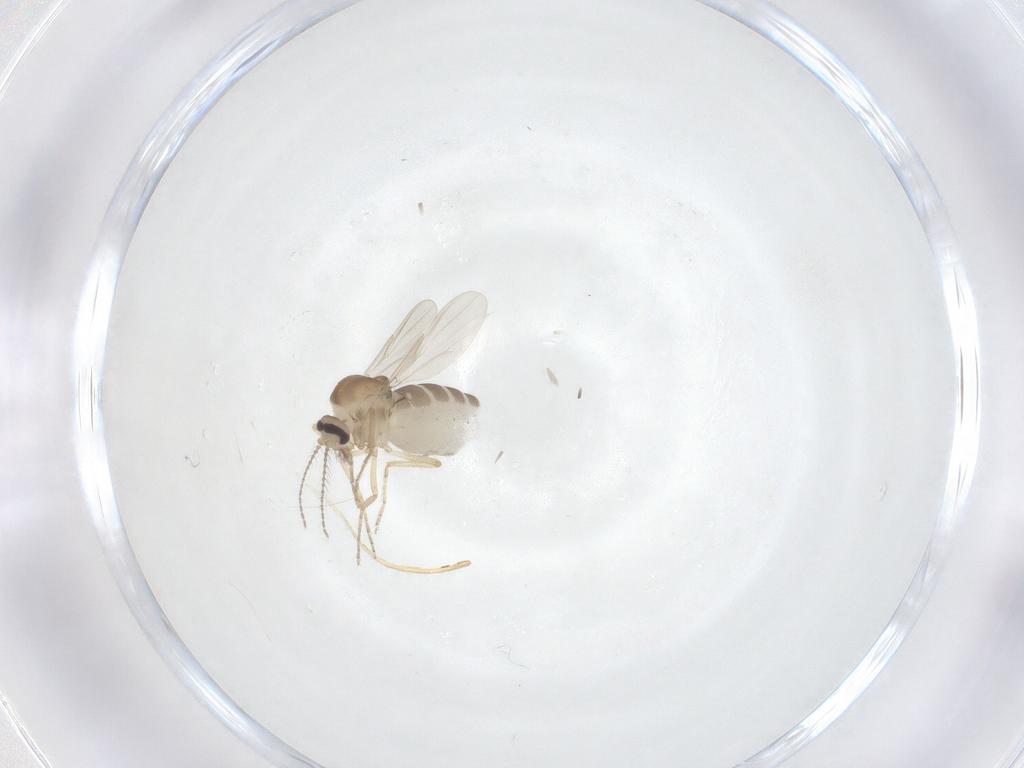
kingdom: Animalia
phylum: Arthropoda
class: Insecta
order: Diptera
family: Ceratopogonidae
